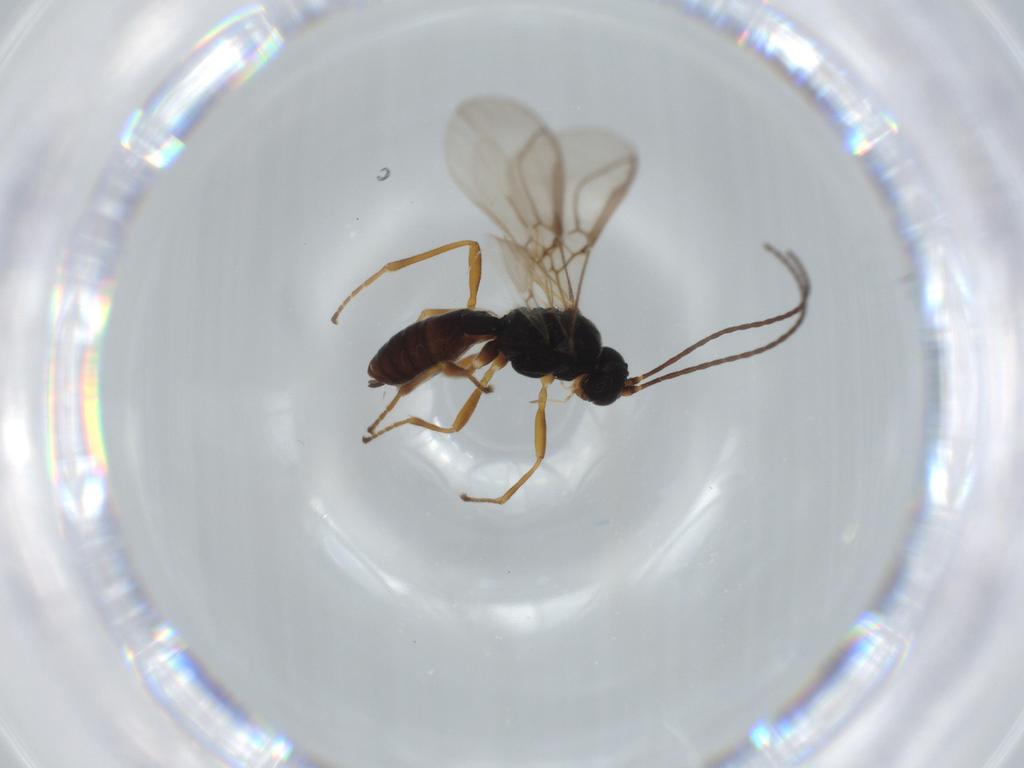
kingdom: Animalia
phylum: Arthropoda
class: Insecta
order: Hymenoptera
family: Braconidae
